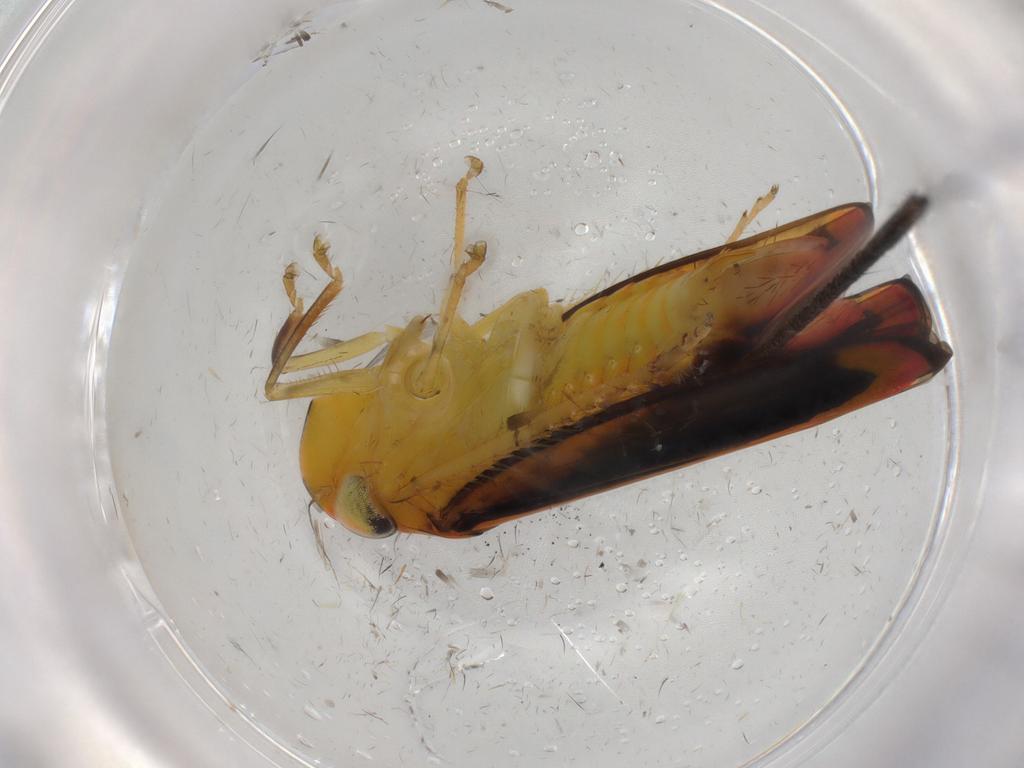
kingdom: Animalia
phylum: Arthropoda
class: Insecta
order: Hemiptera
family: Cicadellidae
